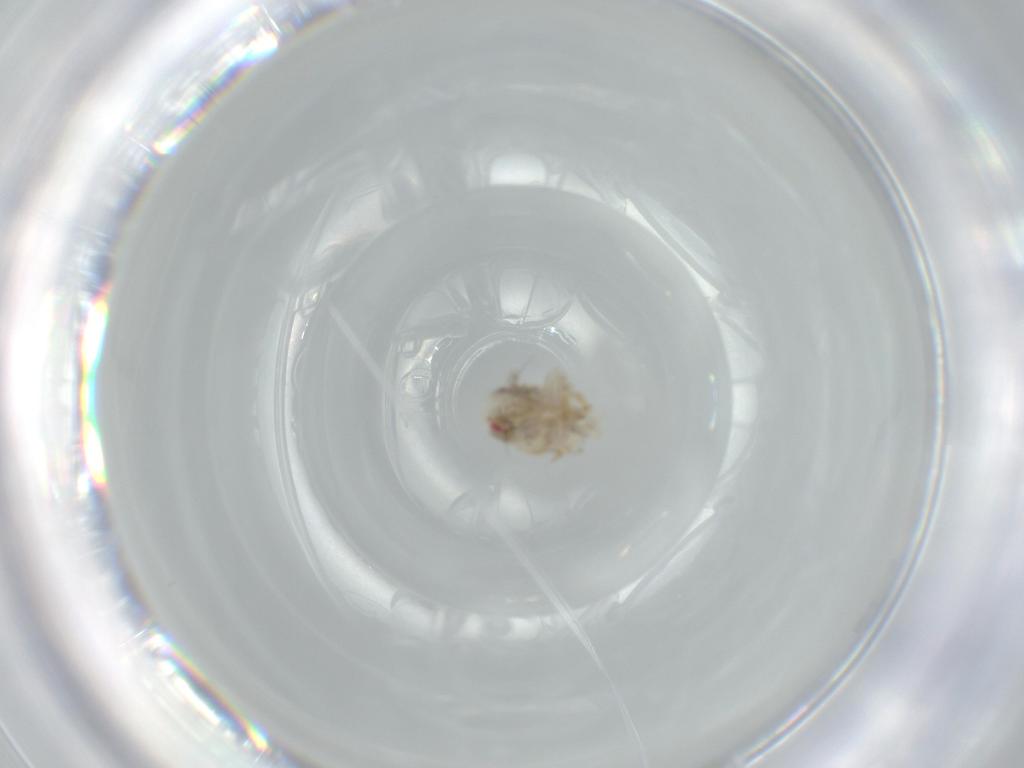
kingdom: Animalia
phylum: Arthropoda
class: Insecta
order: Hemiptera
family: Acanaloniidae
